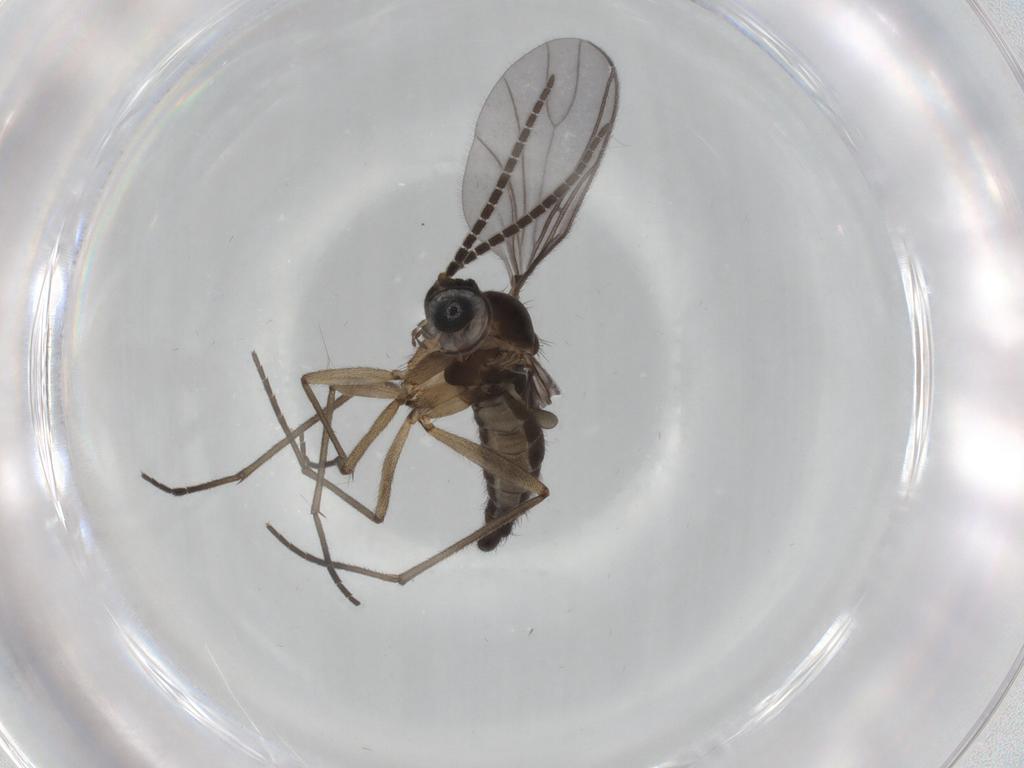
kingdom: Animalia
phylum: Arthropoda
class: Insecta
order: Diptera
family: Sciaridae
